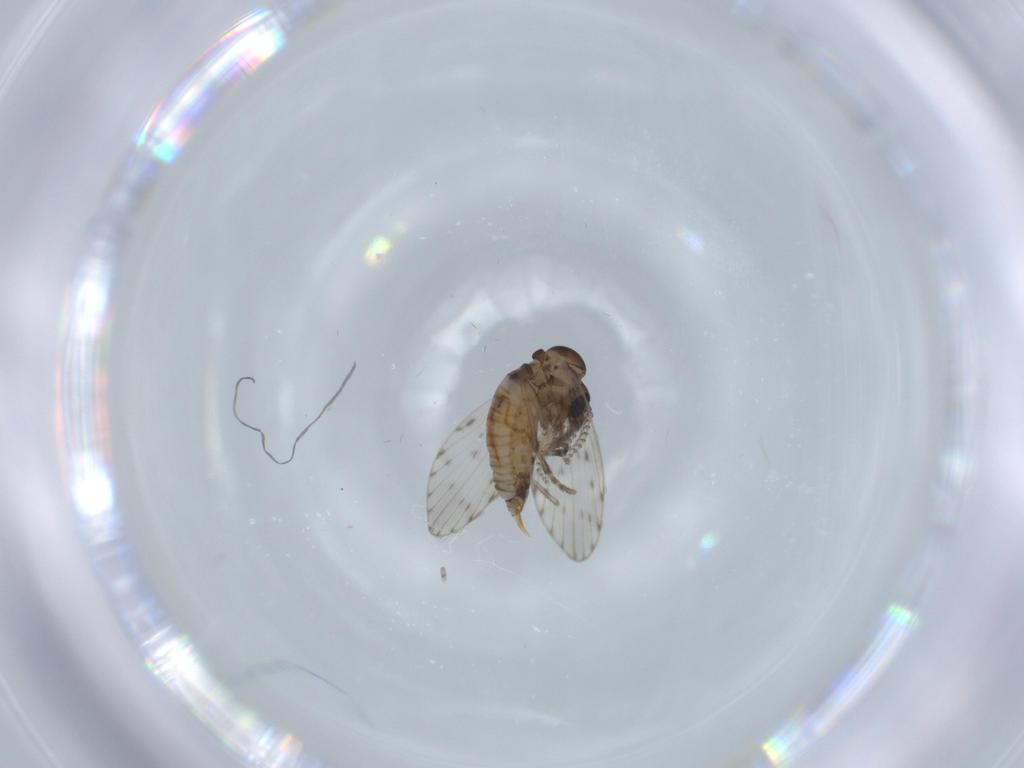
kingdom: Animalia
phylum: Arthropoda
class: Insecta
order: Diptera
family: Psychodidae
